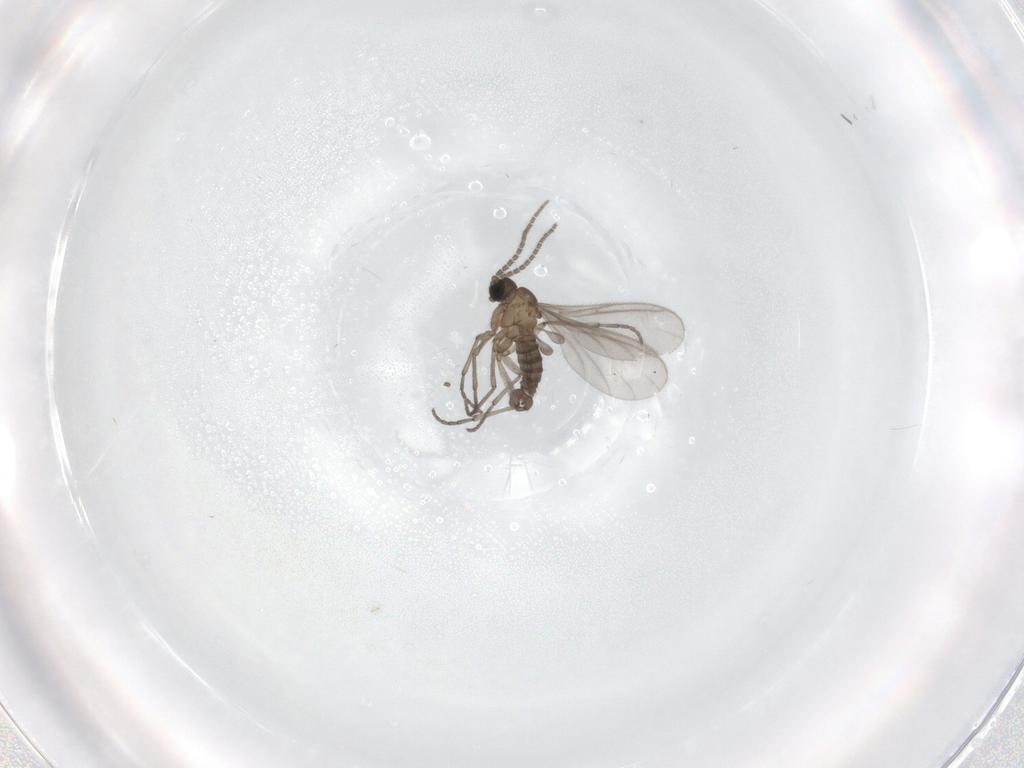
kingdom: Animalia
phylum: Arthropoda
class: Insecta
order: Diptera
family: Sciaridae
